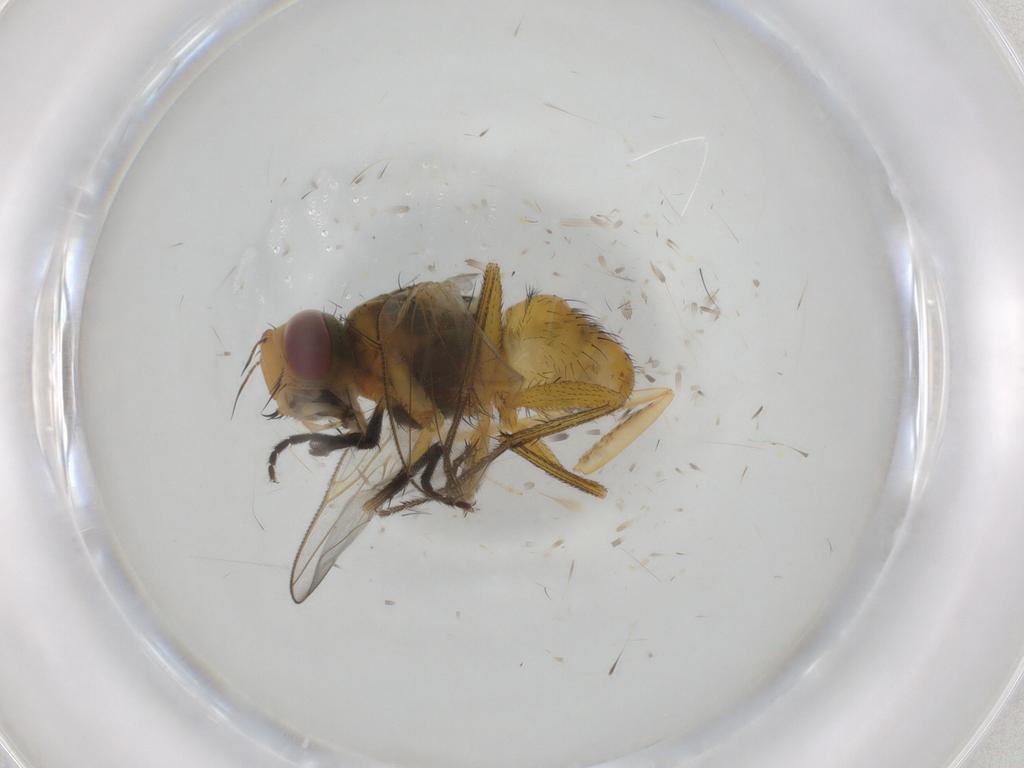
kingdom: Animalia
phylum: Arthropoda
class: Insecta
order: Diptera
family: Muscidae
